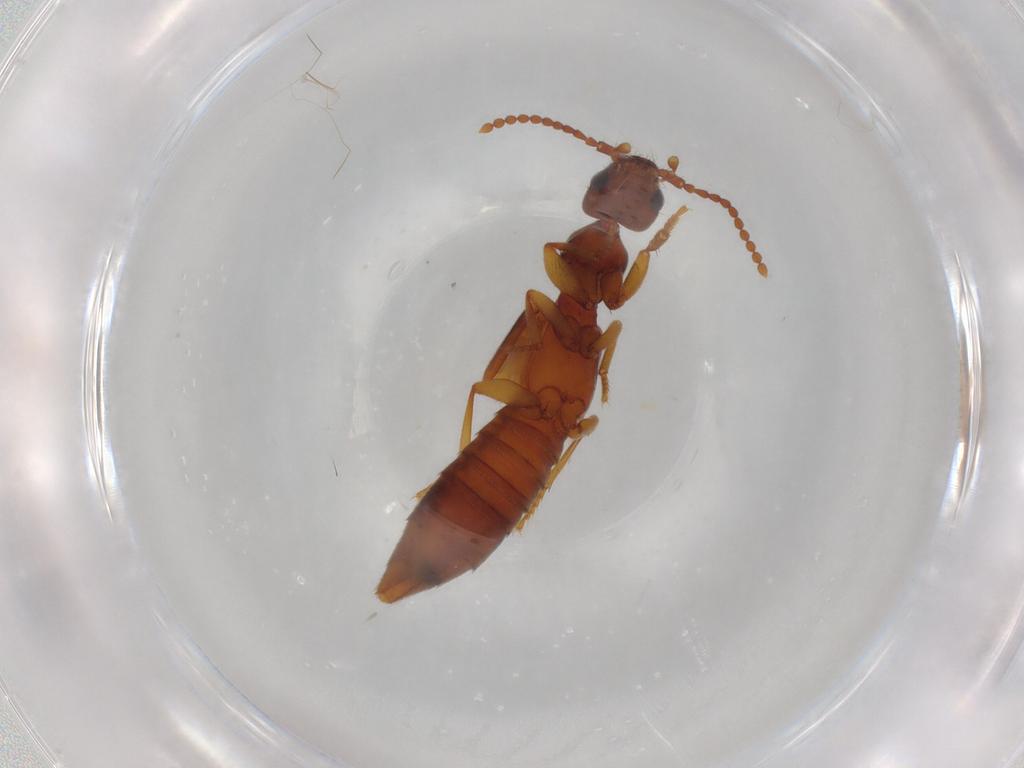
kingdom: Animalia
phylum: Arthropoda
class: Insecta
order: Coleoptera
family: Staphylinidae
